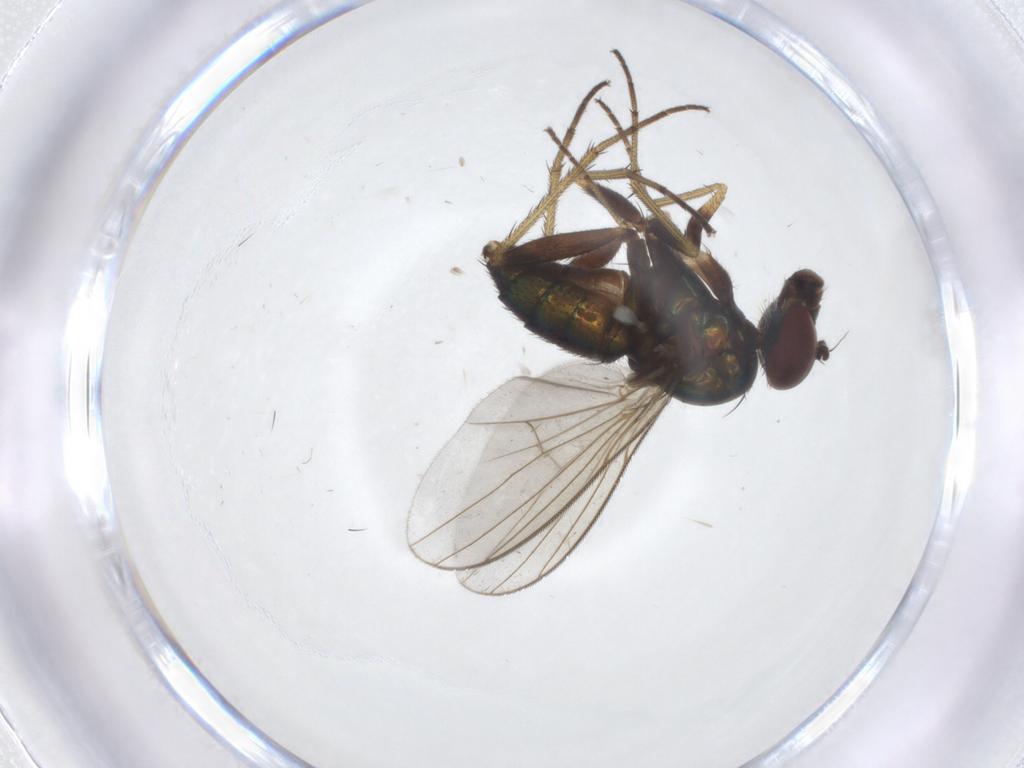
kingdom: Animalia
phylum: Arthropoda
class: Insecta
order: Diptera
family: Dolichopodidae
